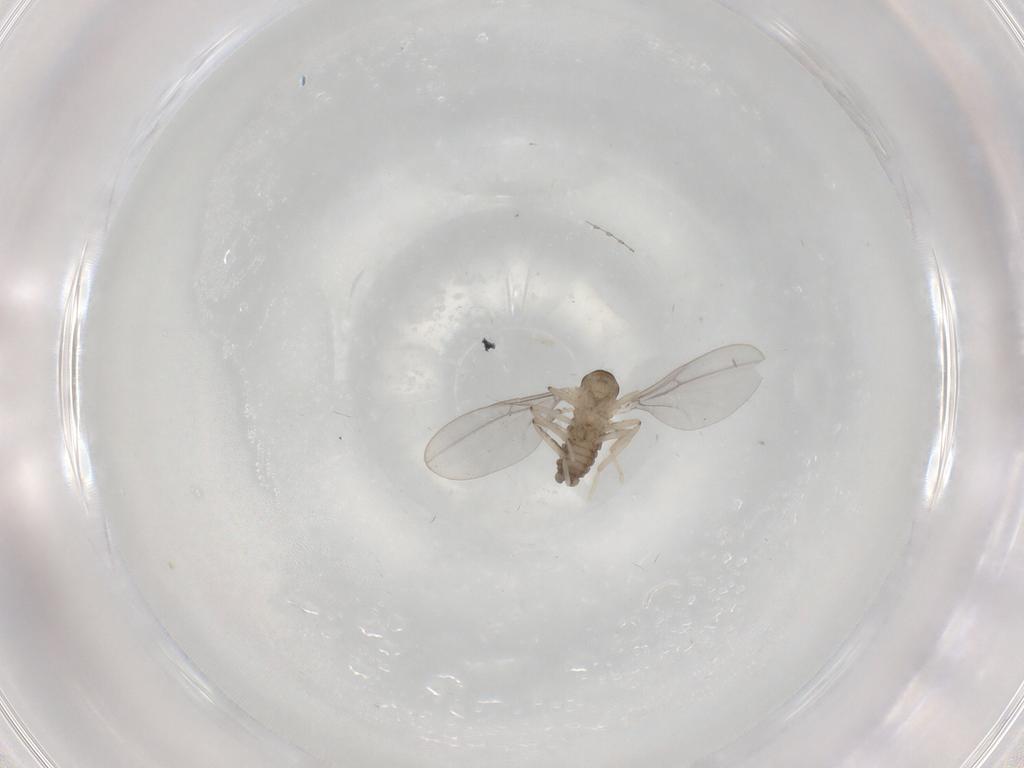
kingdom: Animalia
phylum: Arthropoda
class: Insecta
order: Diptera
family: Cecidomyiidae
